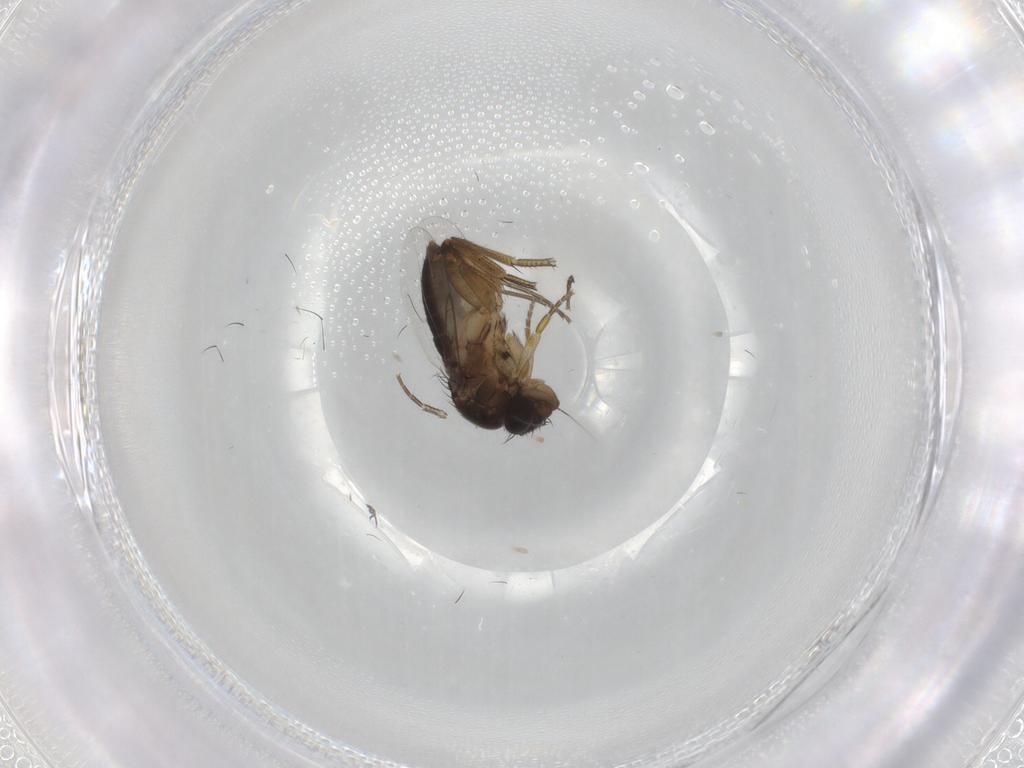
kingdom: Animalia
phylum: Arthropoda
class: Insecta
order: Diptera
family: Phoridae
